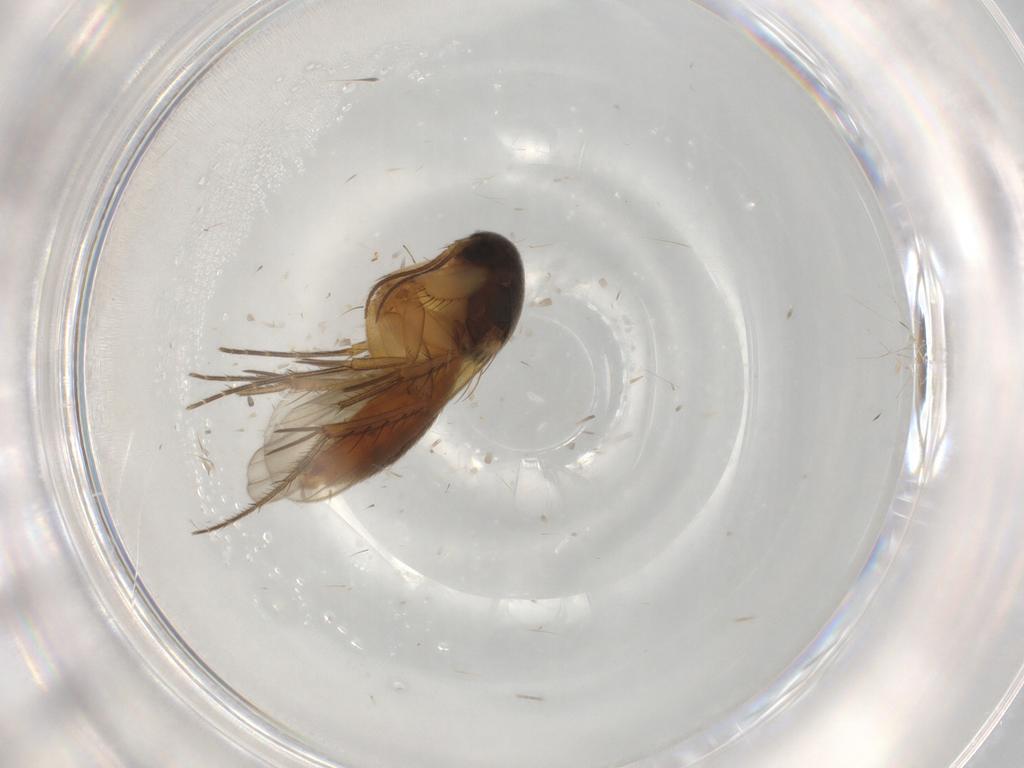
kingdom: Animalia
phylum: Arthropoda
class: Insecta
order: Diptera
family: Mycetophilidae
